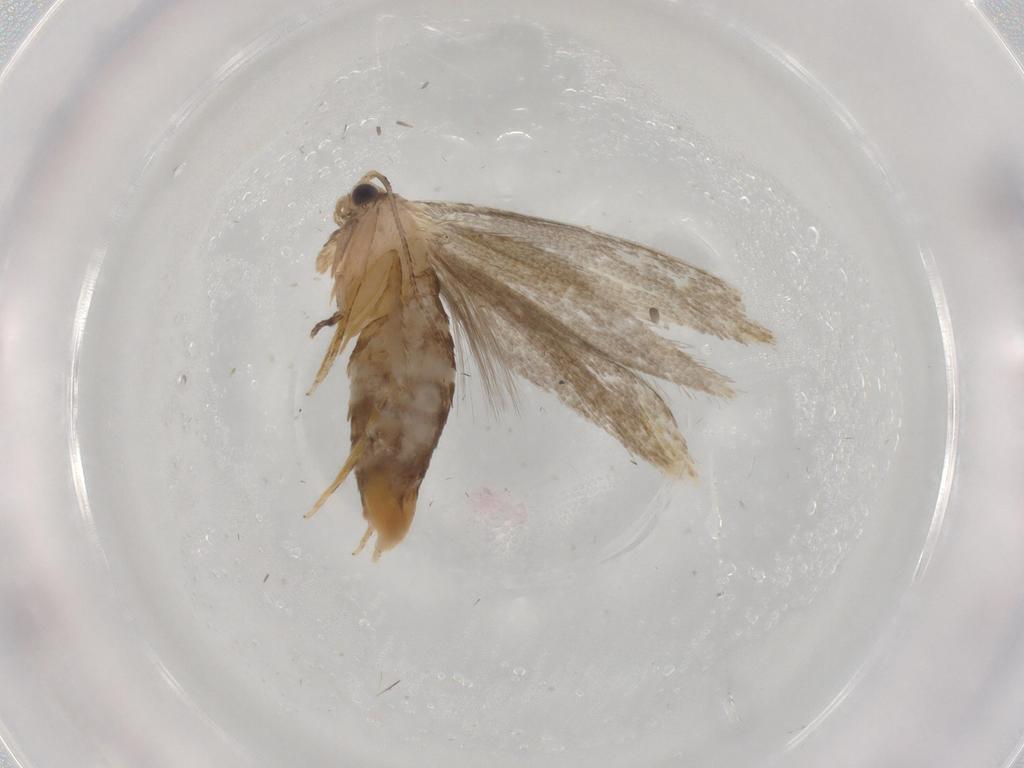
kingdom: Animalia
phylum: Arthropoda
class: Insecta
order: Lepidoptera
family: Tineidae
